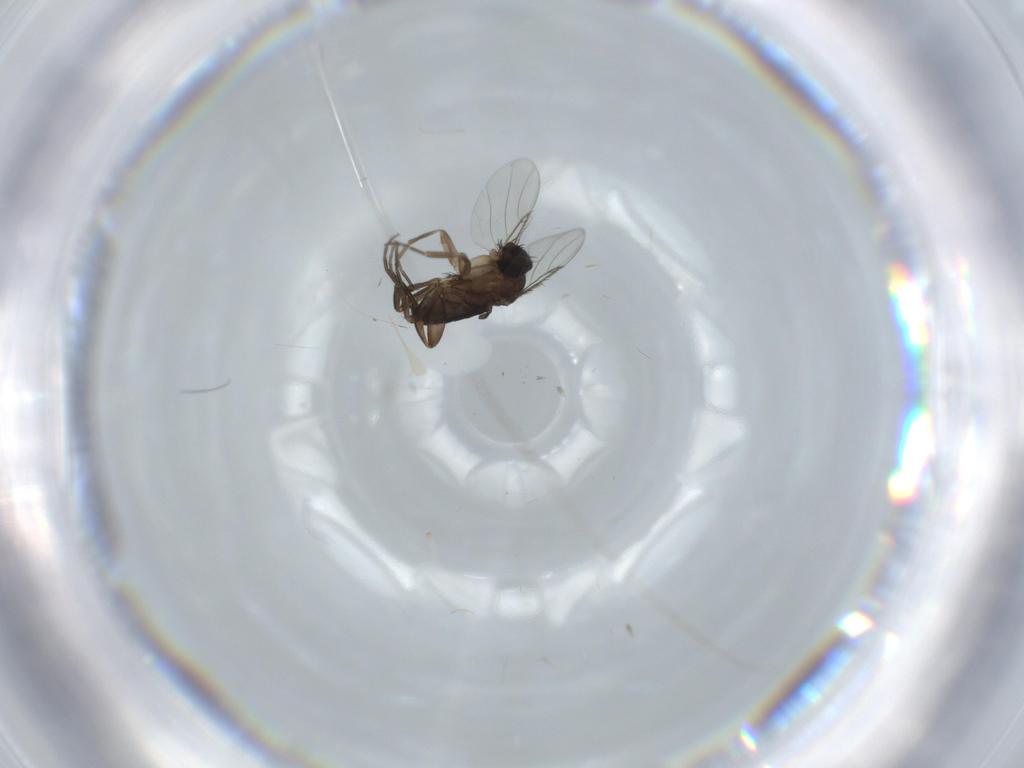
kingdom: Animalia
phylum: Arthropoda
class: Insecta
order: Diptera
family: Phoridae
